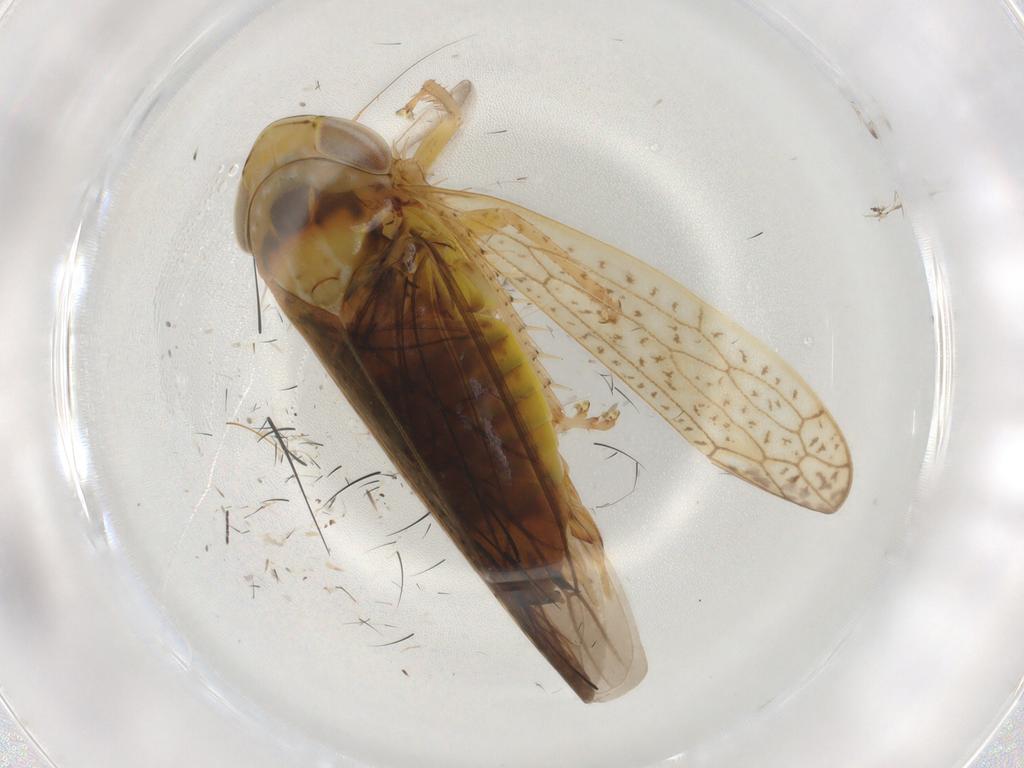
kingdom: Animalia
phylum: Arthropoda
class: Insecta
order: Hemiptera
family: Cicadellidae
